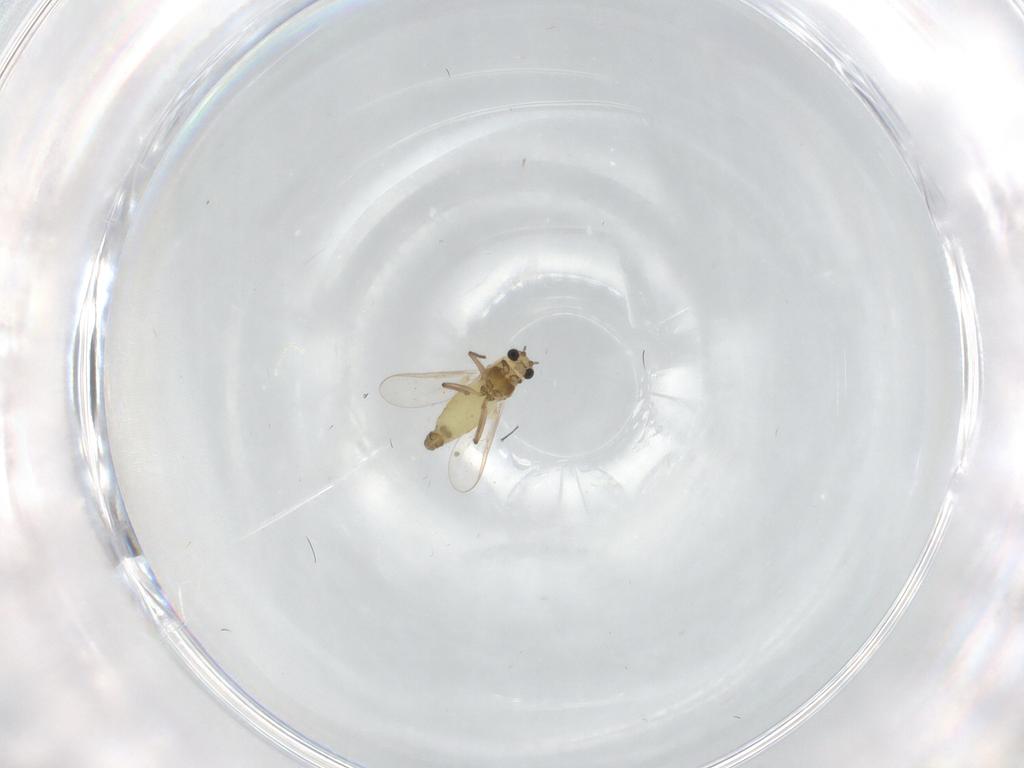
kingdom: Animalia
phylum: Arthropoda
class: Insecta
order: Diptera
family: Chironomidae
